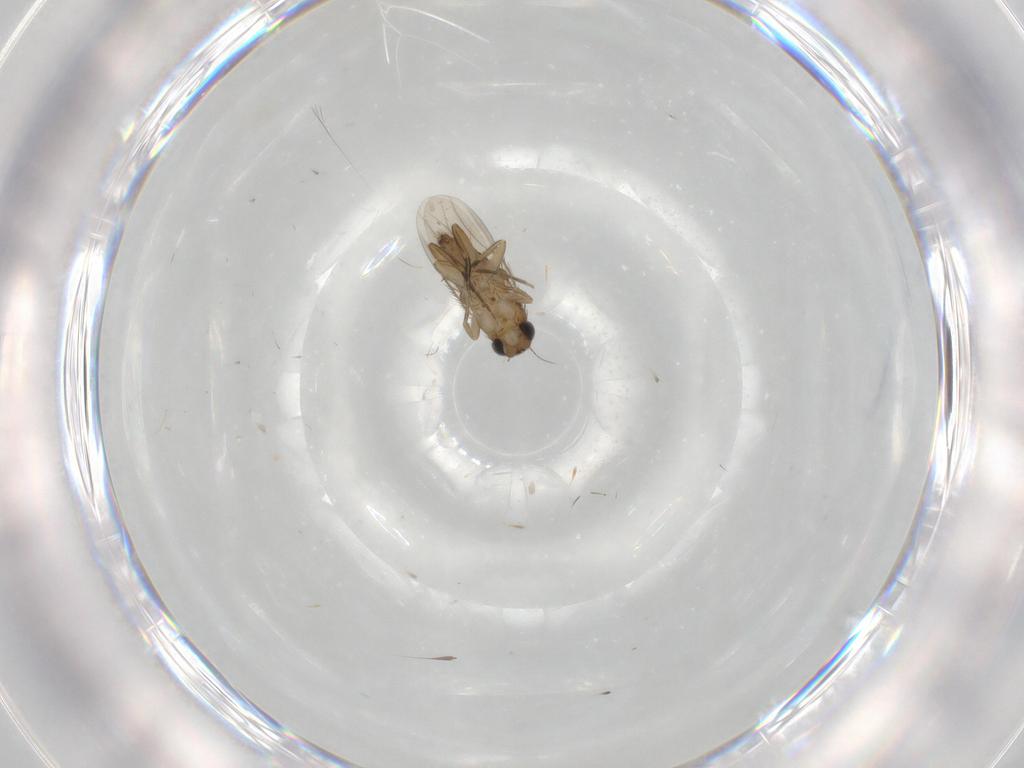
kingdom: Animalia
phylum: Arthropoda
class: Insecta
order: Diptera
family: Phoridae
